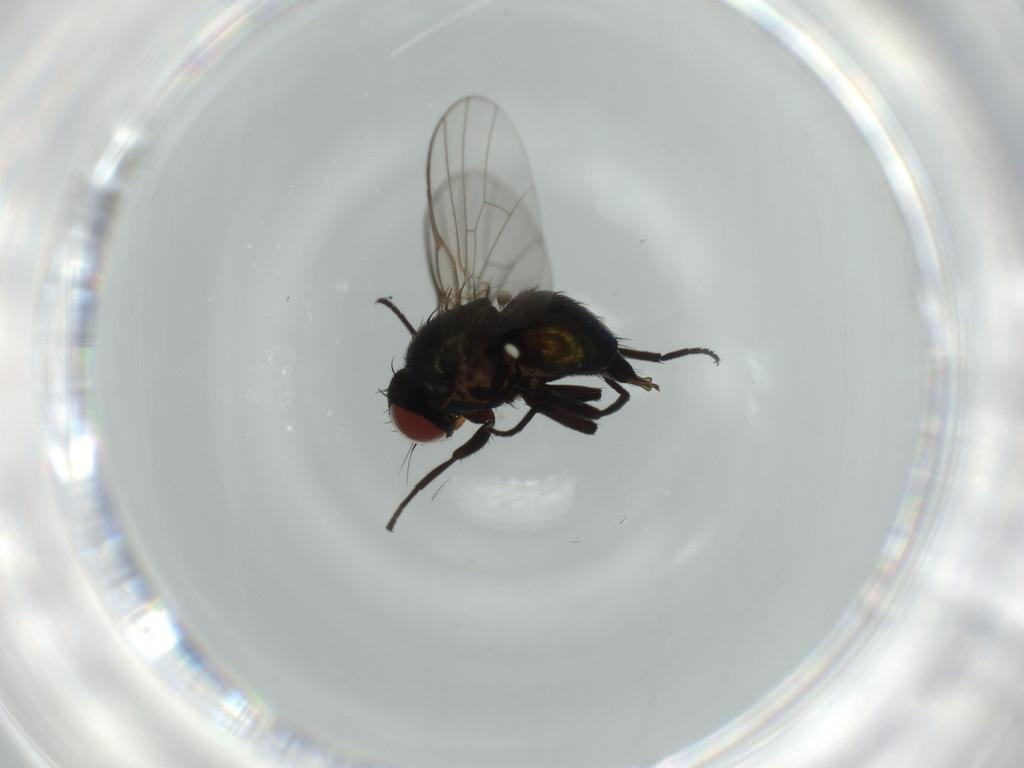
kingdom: Animalia
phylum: Arthropoda
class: Insecta
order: Diptera
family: Agromyzidae
